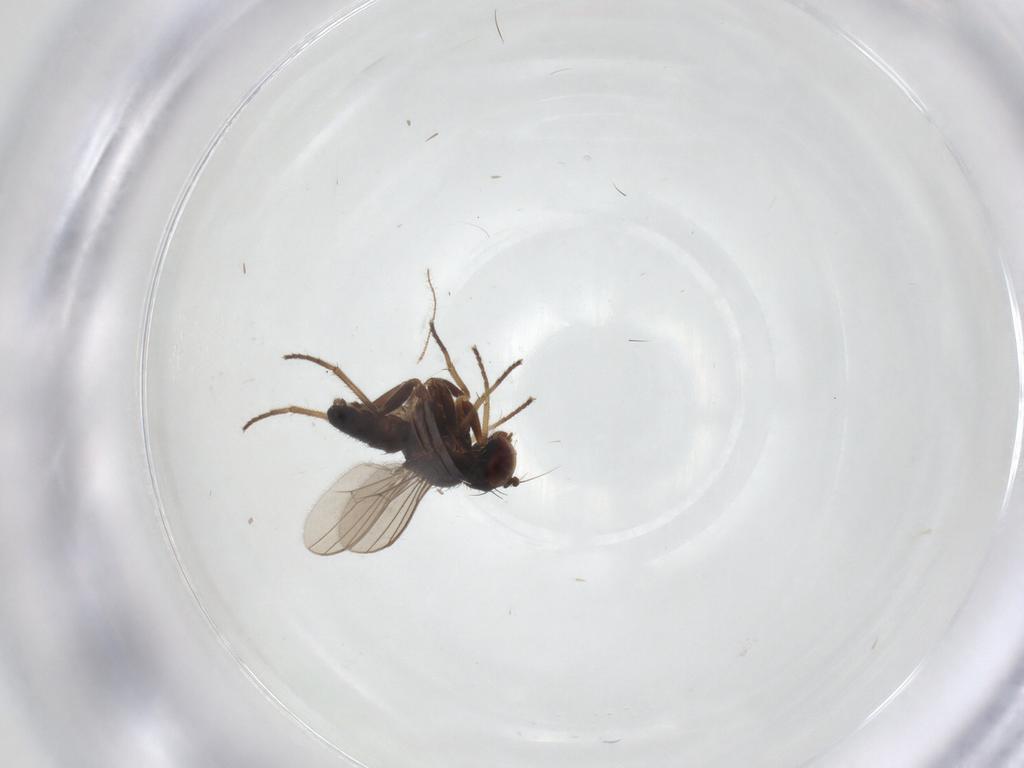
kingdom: Animalia
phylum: Arthropoda
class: Insecta
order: Diptera
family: Dolichopodidae
